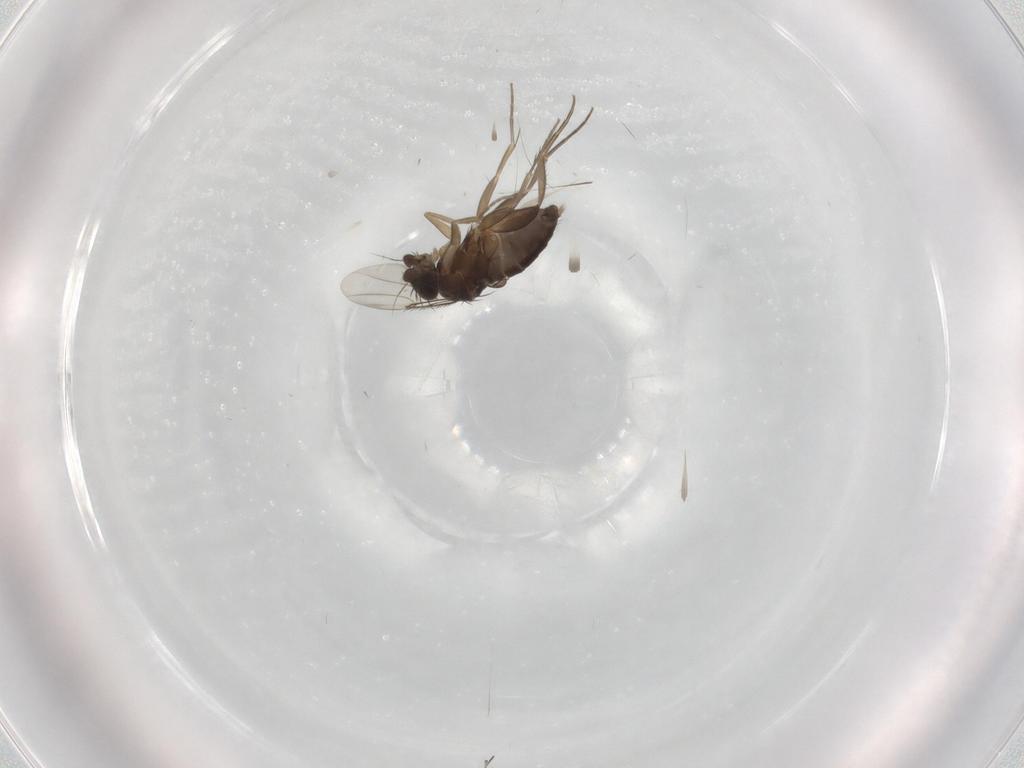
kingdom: Animalia
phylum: Arthropoda
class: Insecta
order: Diptera
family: Phoridae
